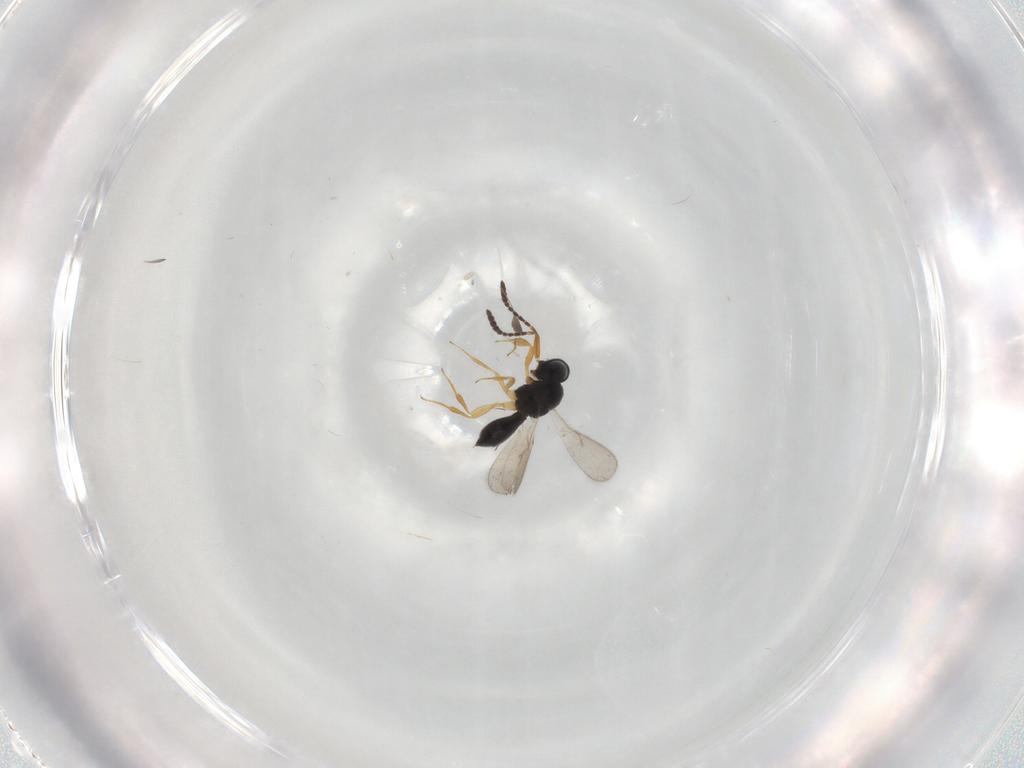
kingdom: Animalia
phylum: Arthropoda
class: Insecta
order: Hymenoptera
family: Scelionidae
